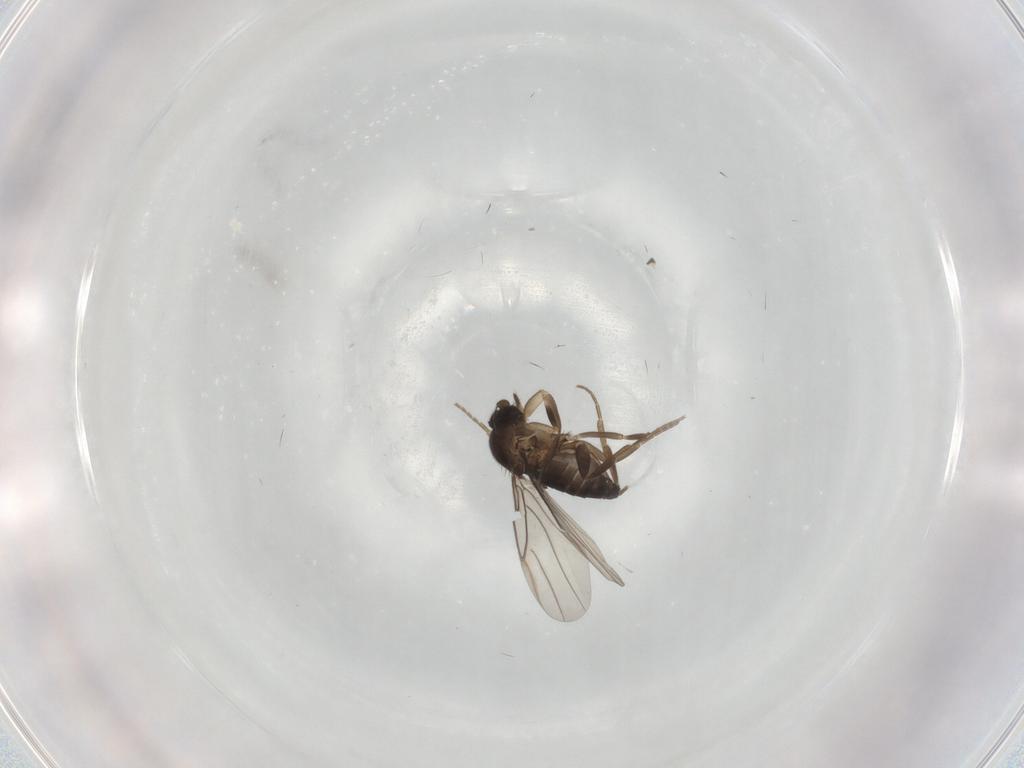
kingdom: Animalia
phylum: Arthropoda
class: Insecta
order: Diptera
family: Phoridae
